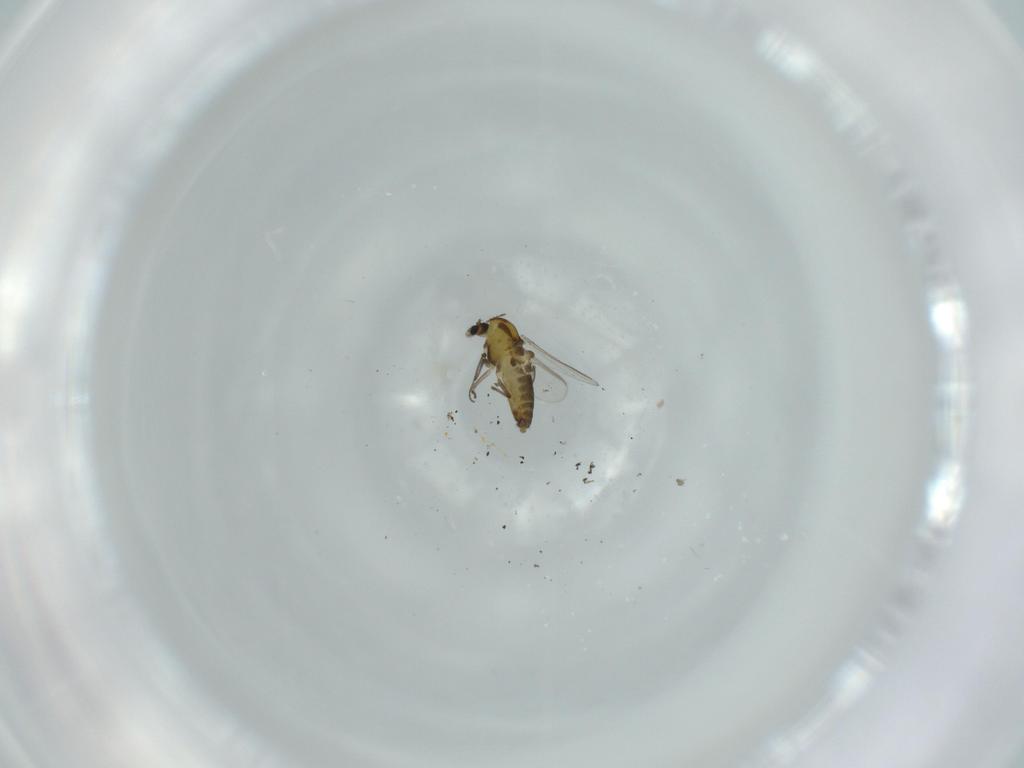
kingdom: Animalia
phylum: Arthropoda
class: Insecta
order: Diptera
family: Chironomidae
